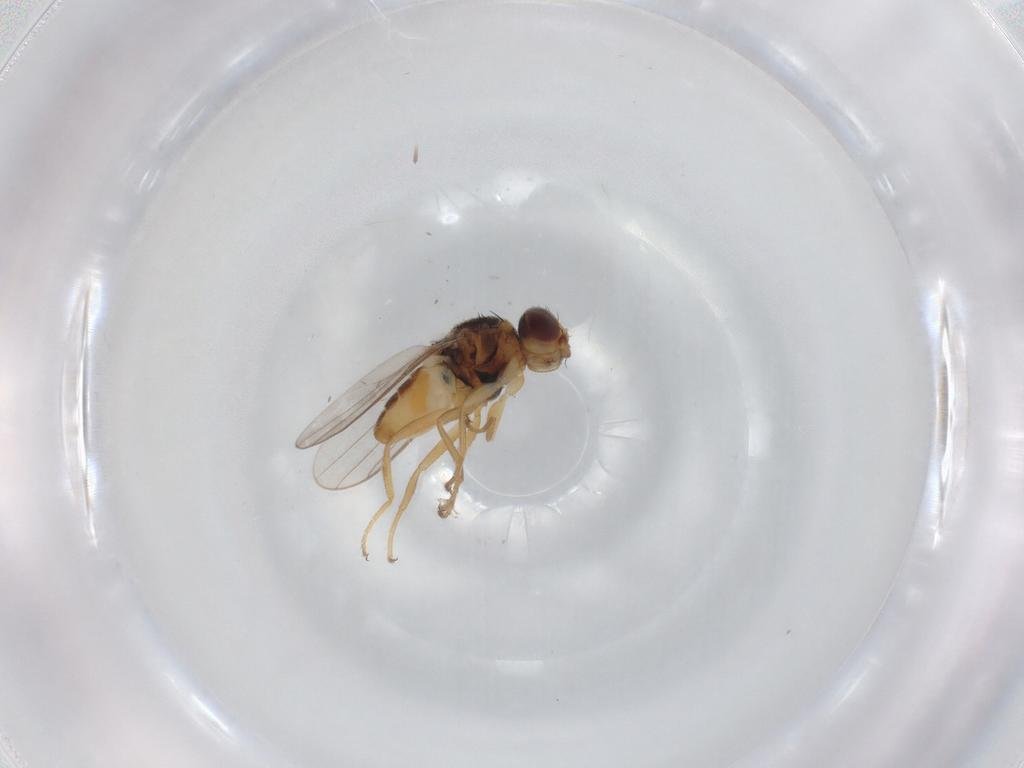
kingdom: Animalia
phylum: Arthropoda
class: Insecta
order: Diptera
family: Chloropidae
